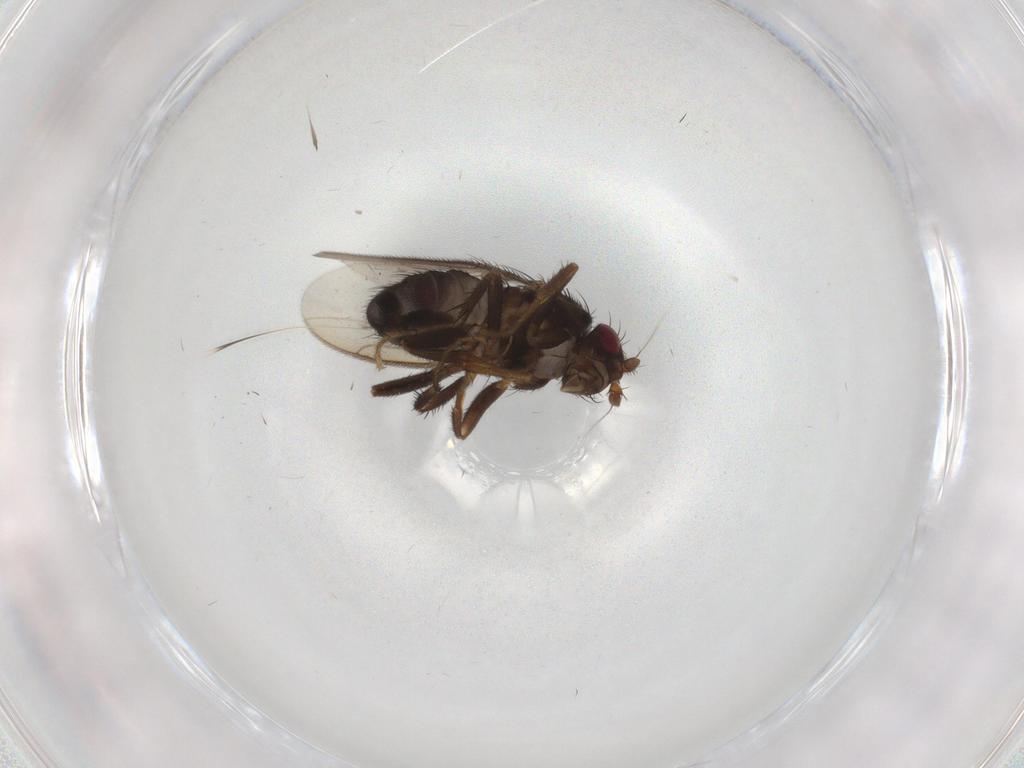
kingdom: Animalia
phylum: Arthropoda
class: Insecta
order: Diptera
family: Sphaeroceridae
